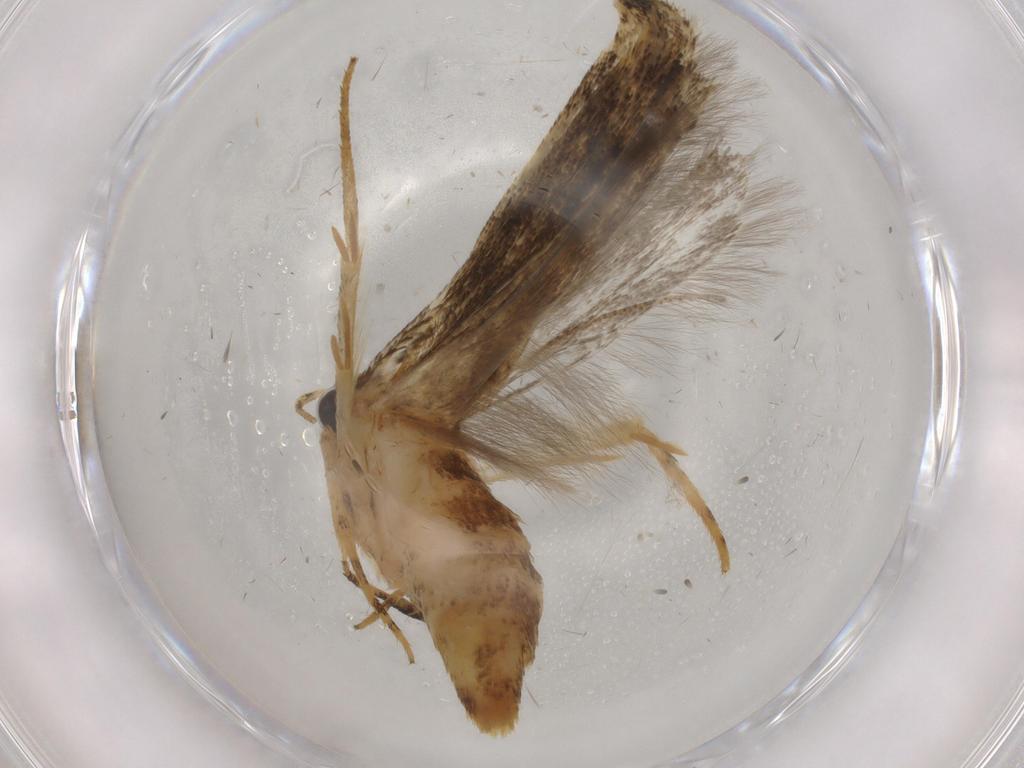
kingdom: Animalia
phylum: Arthropoda
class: Insecta
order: Lepidoptera
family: Gelechiidae
